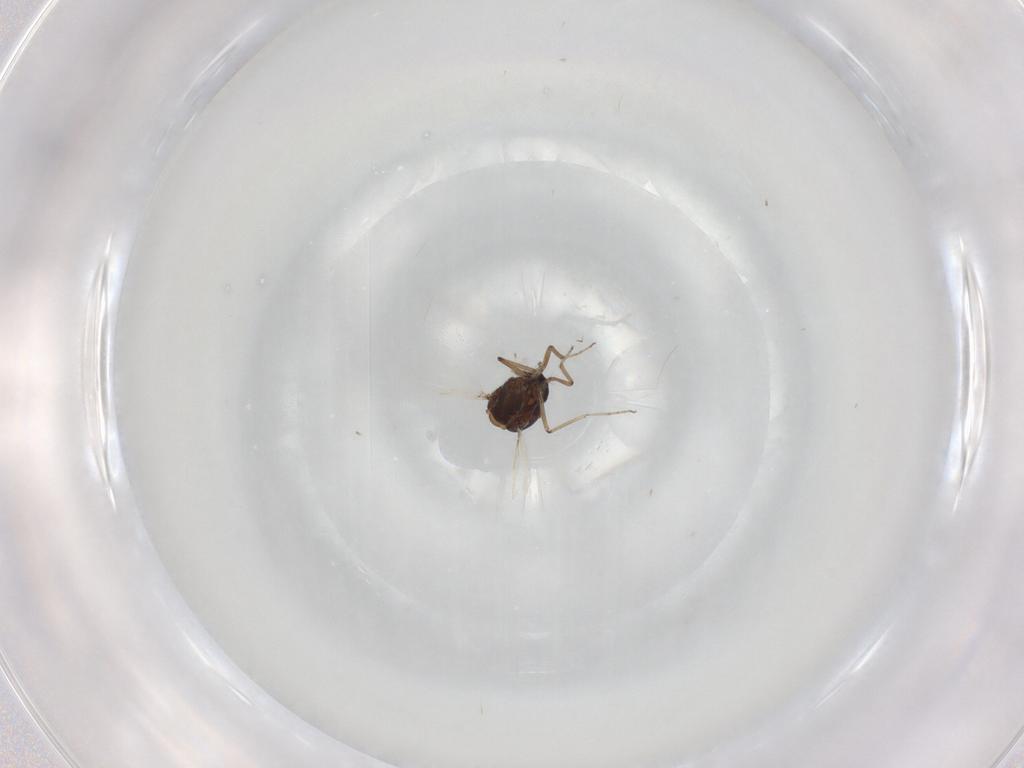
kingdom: Animalia
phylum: Arthropoda
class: Insecta
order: Diptera
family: Ceratopogonidae
